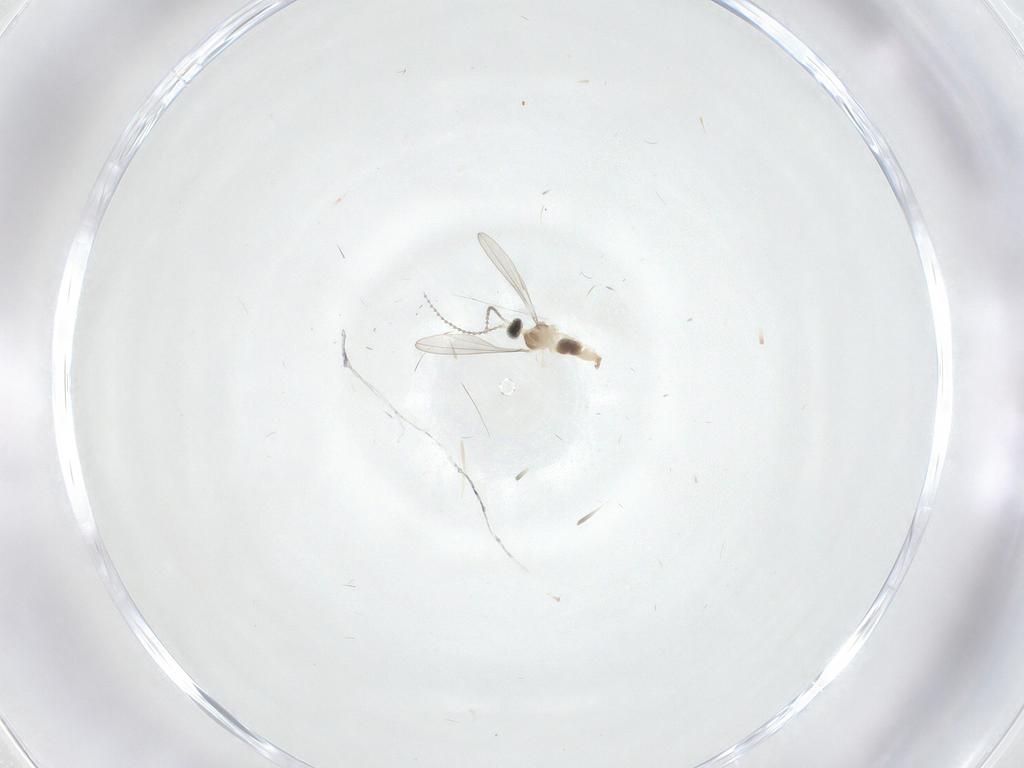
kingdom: Animalia
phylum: Arthropoda
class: Insecta
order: Diptera
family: Cecidomyiidae
